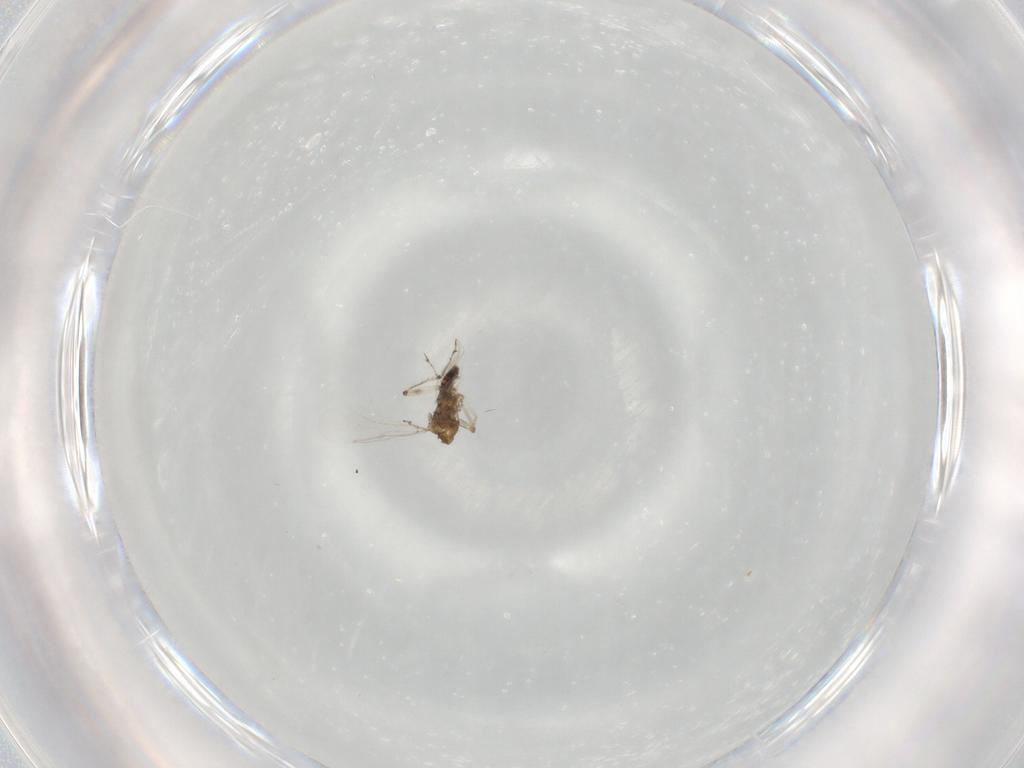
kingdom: Animalia
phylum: Arthropoda
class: Insecta
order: Diptera
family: Ceratopogonidae
